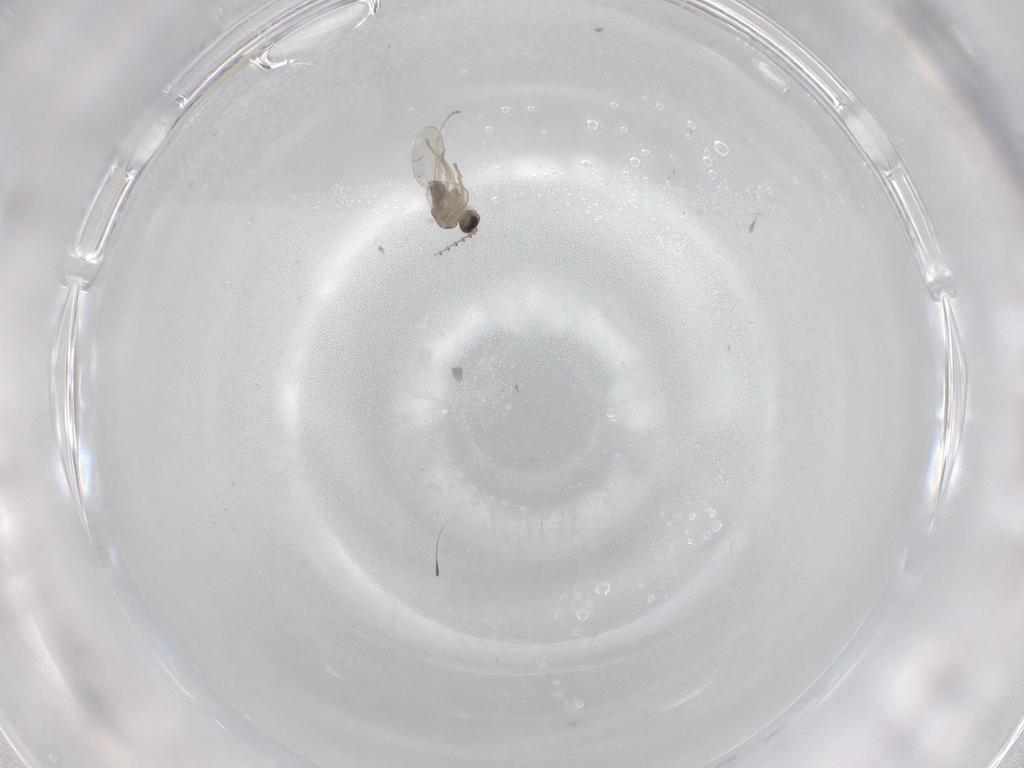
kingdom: Animalia
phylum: Arthropoda
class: Insecta
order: Diptera
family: Cecidomyiidae
